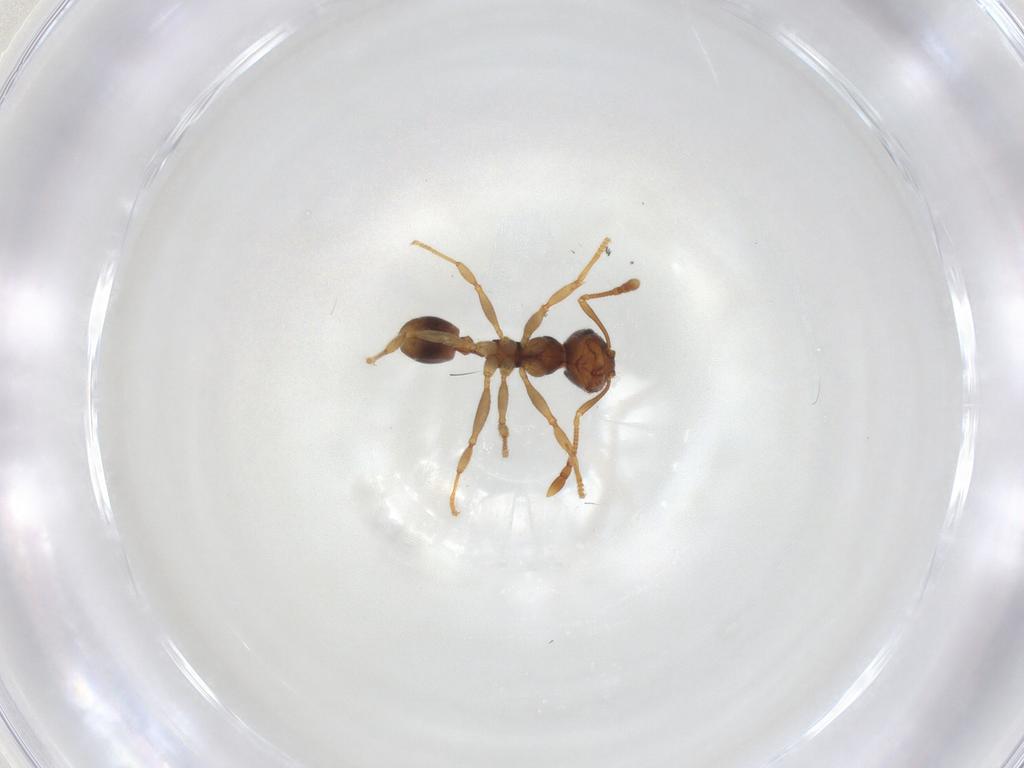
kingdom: Animalia
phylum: Arthropoda
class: Insecta
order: Hymenoptera
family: Formicidae
